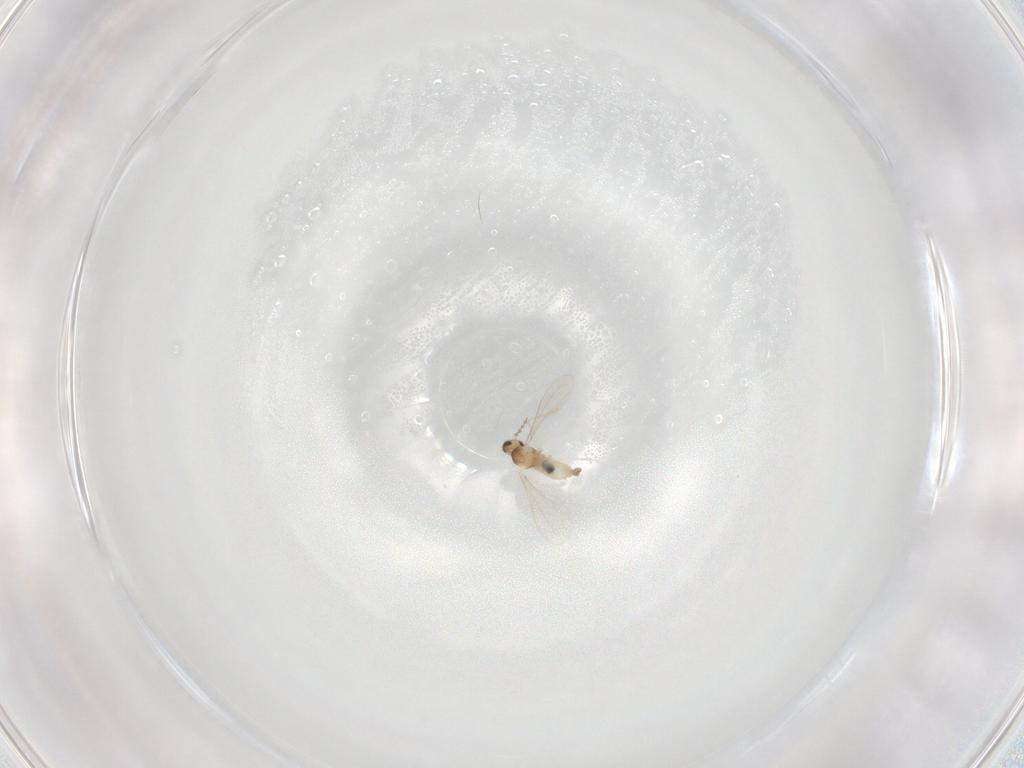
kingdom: Animalia
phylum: Arthropoda
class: Insecta
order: Diptera
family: Cecidomyiidae
